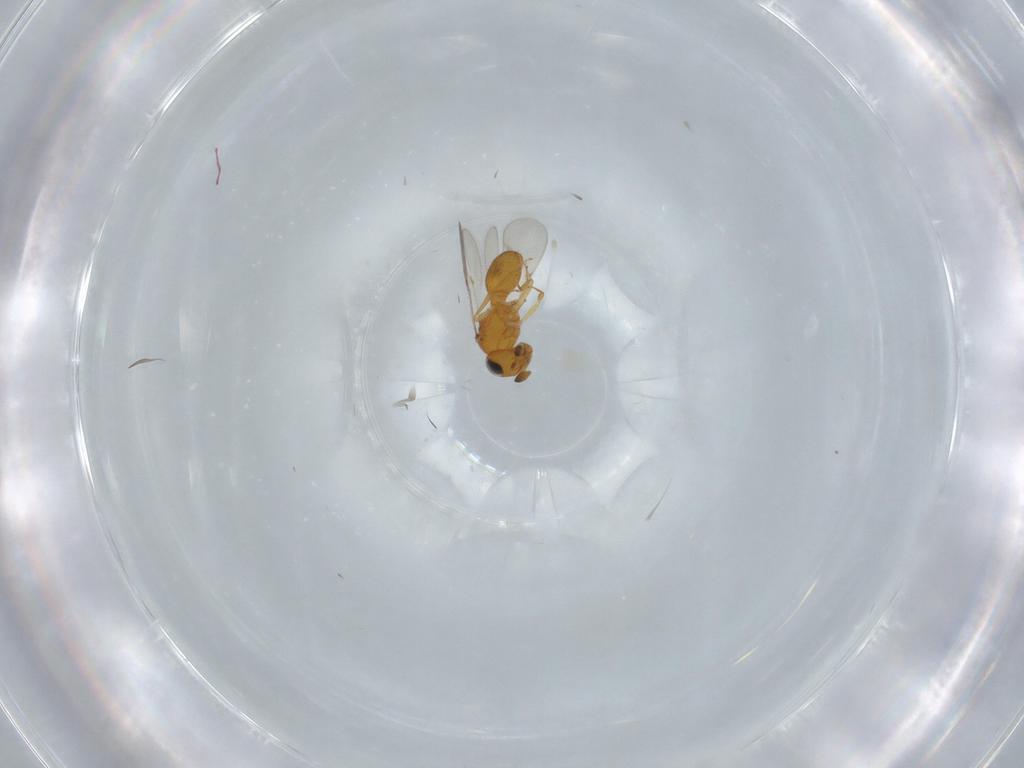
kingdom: Animalia
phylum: Arthropoda
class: Insecta
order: Hymenoptera
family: Scelionidae
